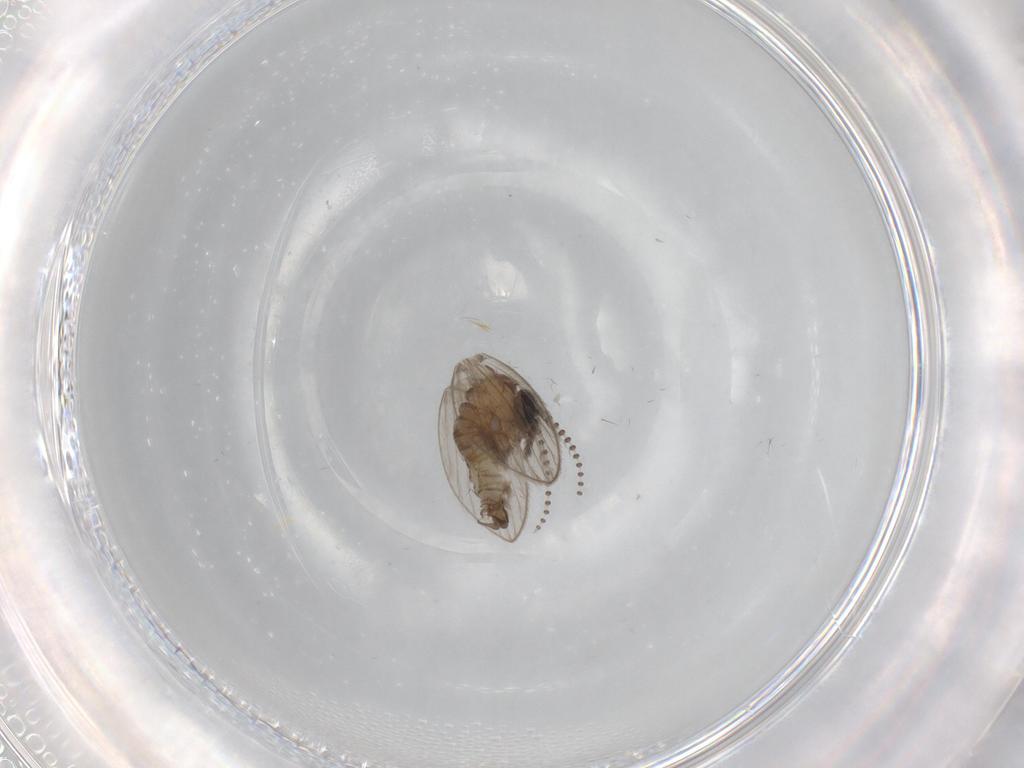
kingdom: Animalia
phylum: Arthropoda
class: Insecta
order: Diptera
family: Psychodidae
